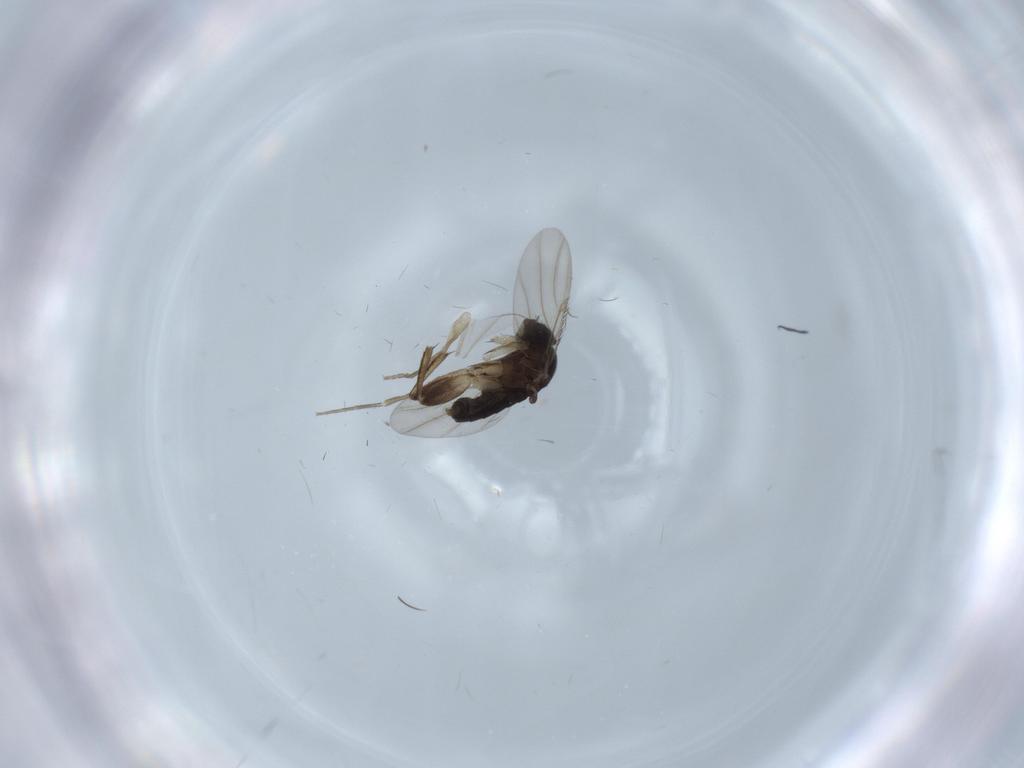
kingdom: Animalia
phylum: Arthropoda
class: Insecta
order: Diptera
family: Phoridae
